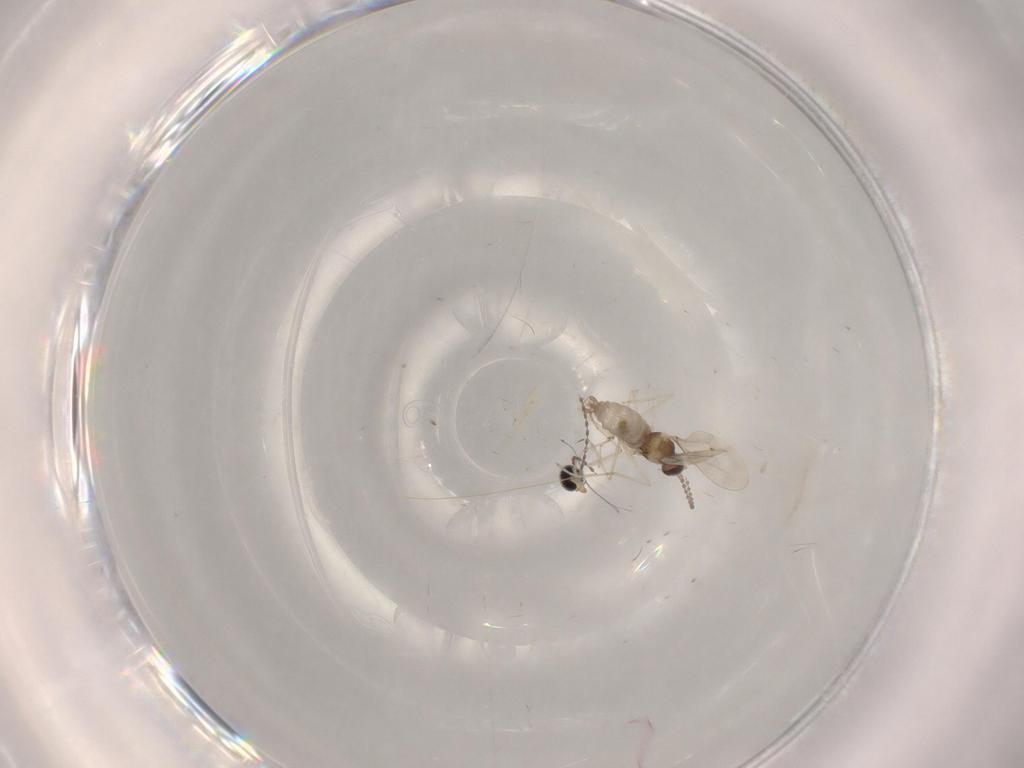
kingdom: Animalia
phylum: Arthropoda
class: Insecta
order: Diptera
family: Cecidomyiidae
